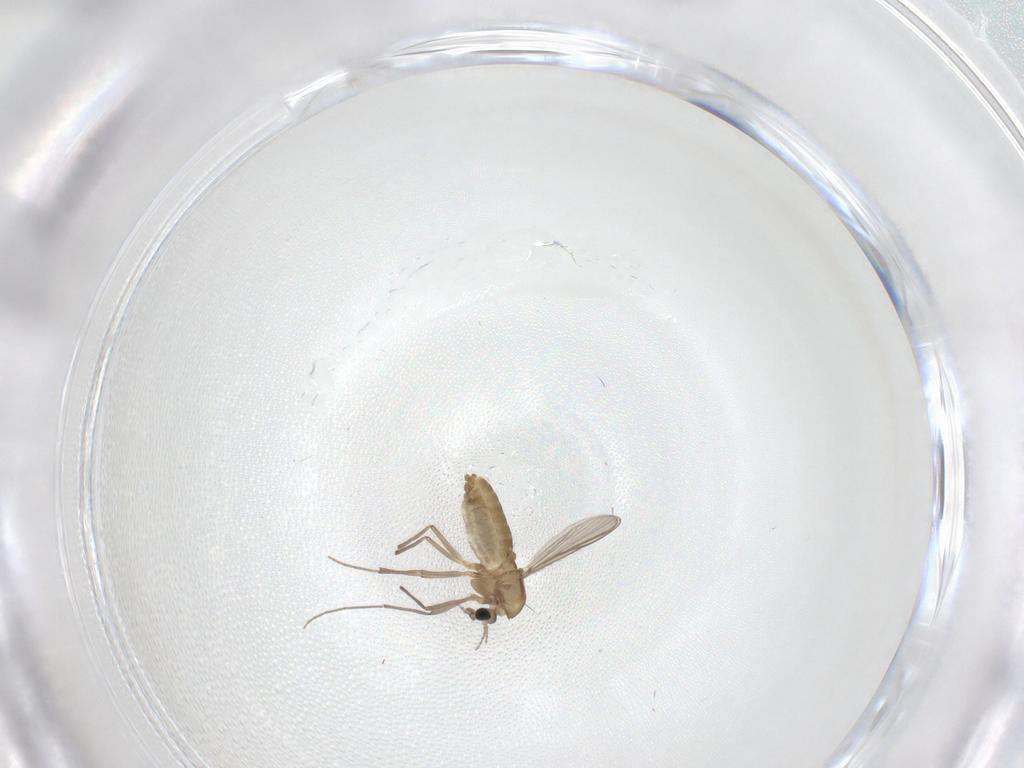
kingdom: Animalia
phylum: Arthropoda
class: Insecta
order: Diptera
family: Chironomidae
